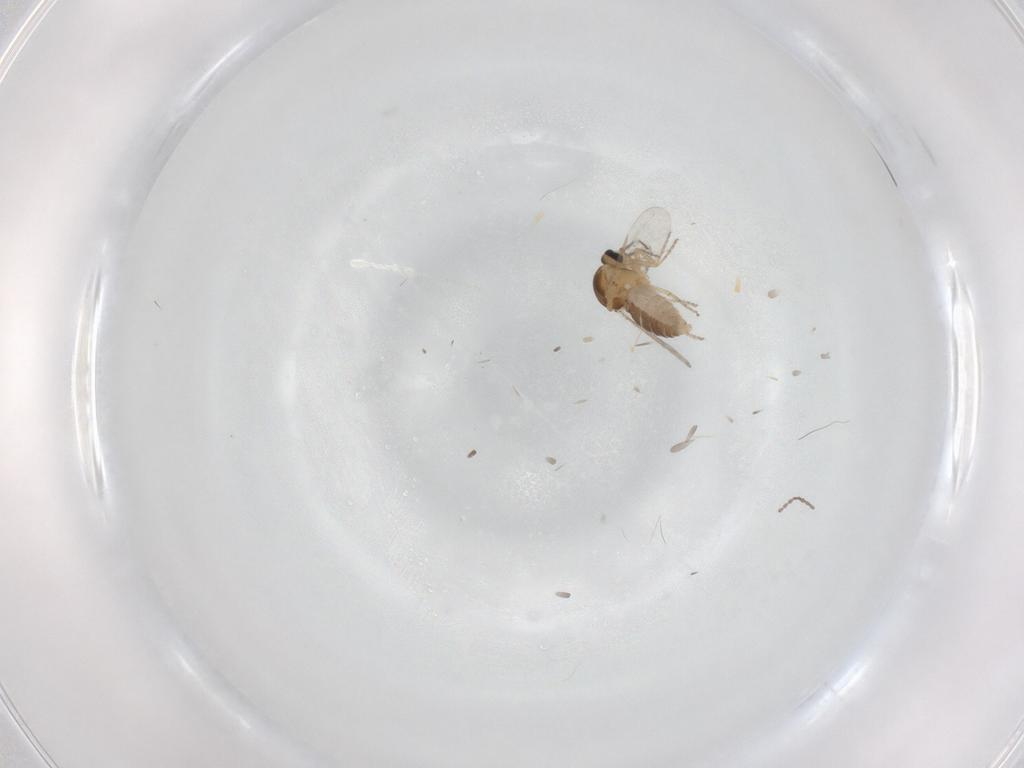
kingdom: Animalia
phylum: Arthropoda
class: Insecta
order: Diptera
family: Ceratopogonidae
